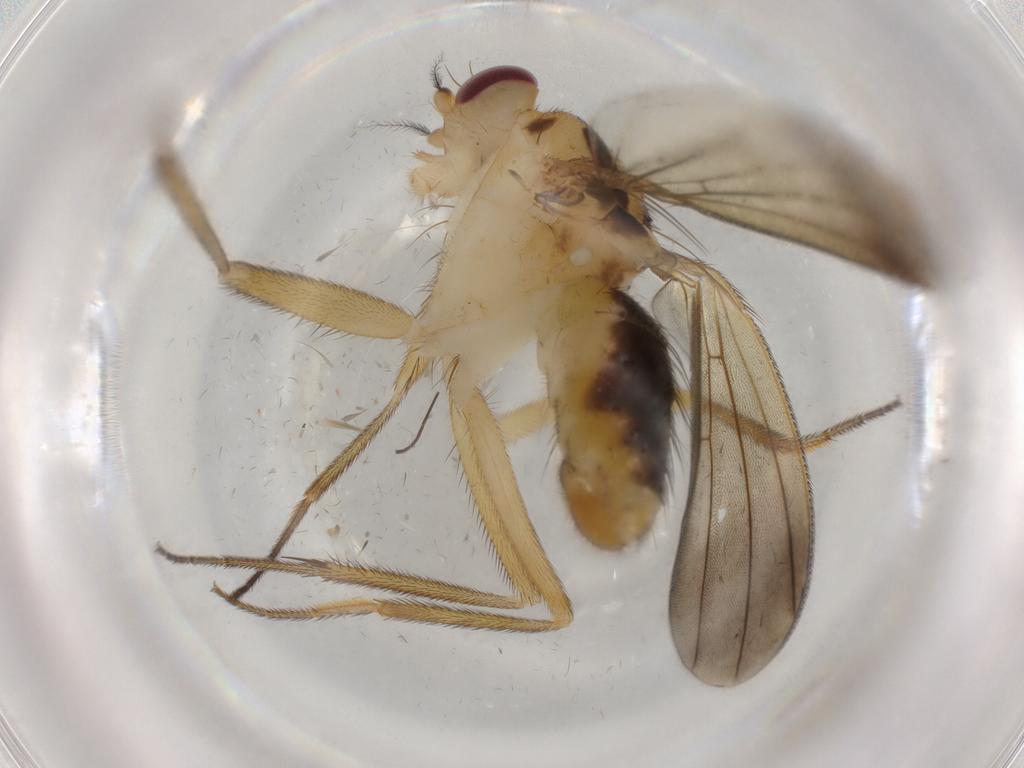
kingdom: Animalia
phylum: Arthropoda
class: Insecta
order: Diptera
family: Clusiidae
